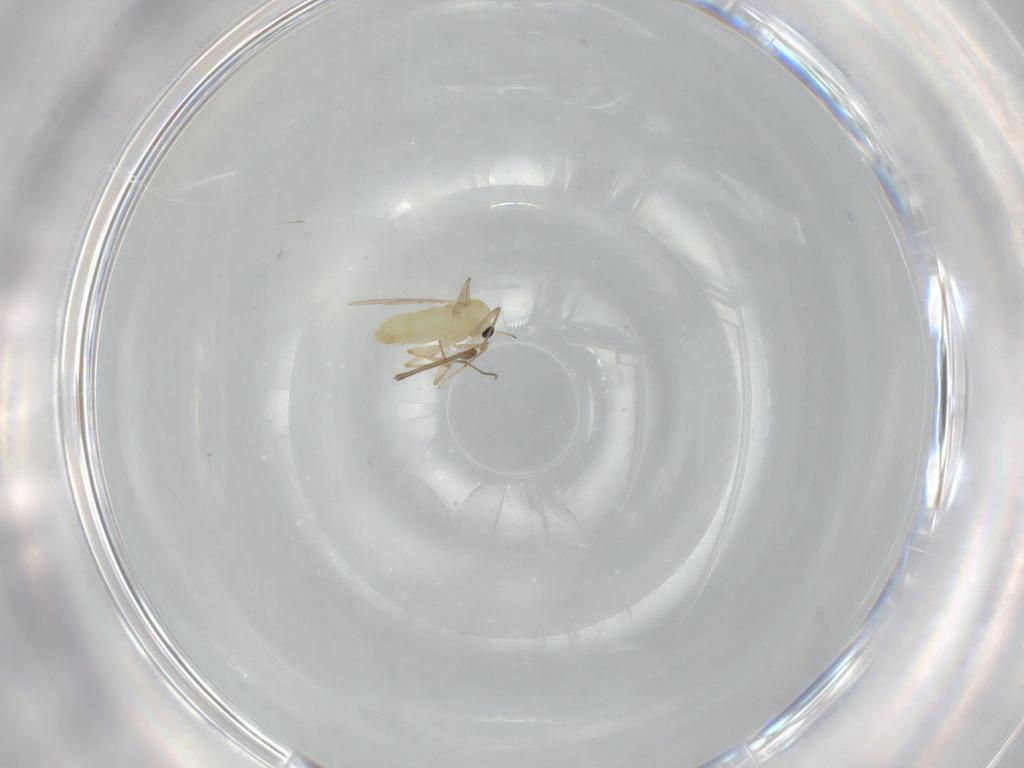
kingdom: Animalia
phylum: Arthropoda
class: Insecta
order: Diptera
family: Chironomidae
